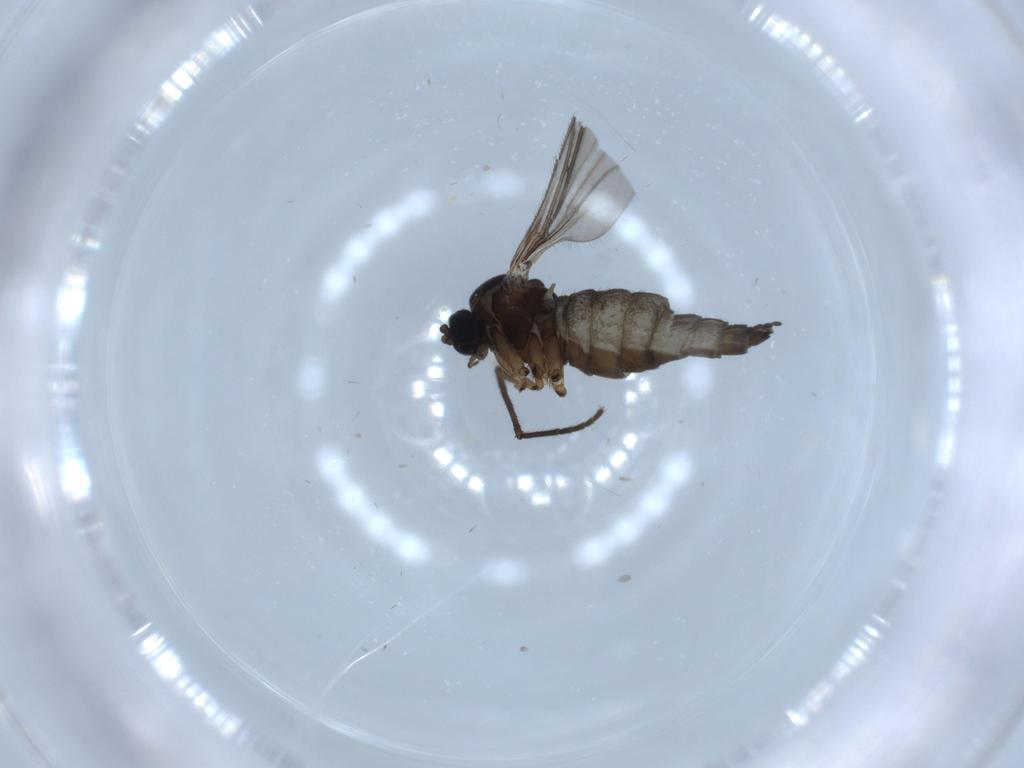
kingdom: Animalia
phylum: Arthropoda
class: Insecta
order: Diptera
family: Sciaridae
